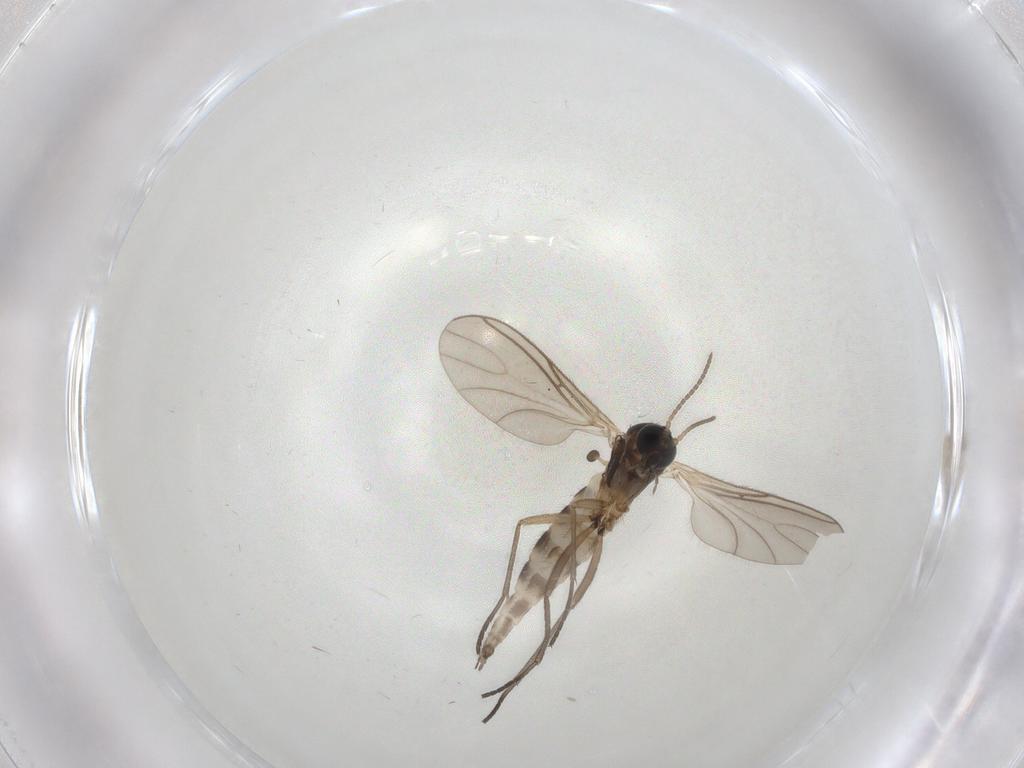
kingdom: Animalia
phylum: Arthropoda
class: Insecta
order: Diptera
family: Sciaridae
